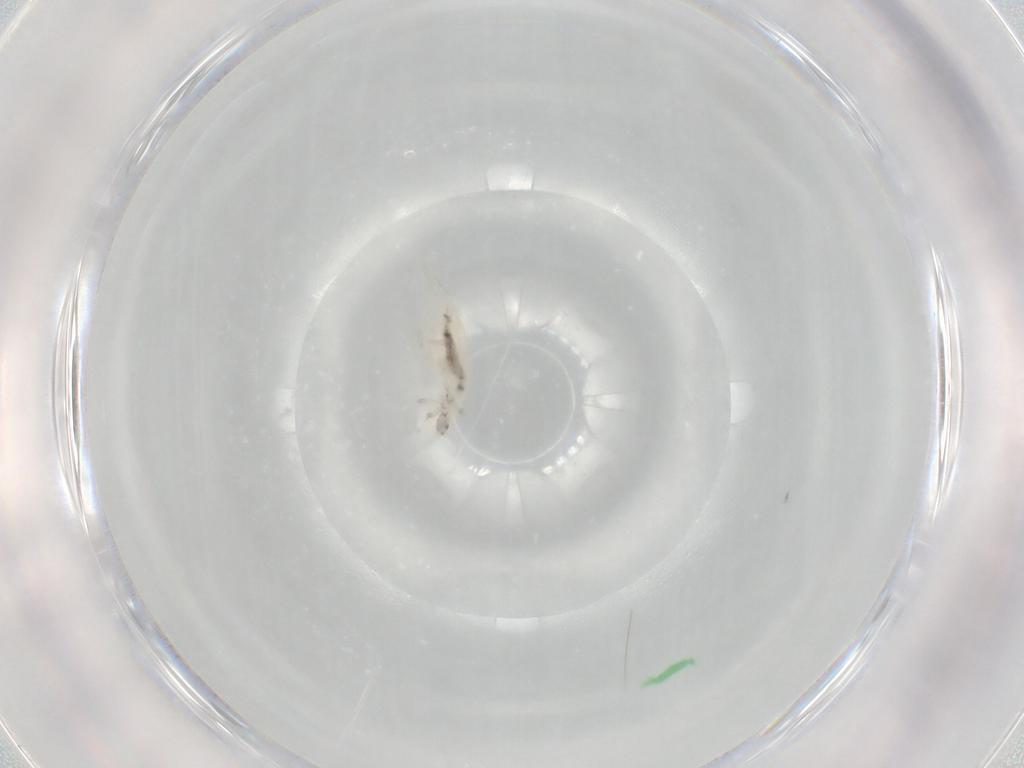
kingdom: Animalia
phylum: Arthropoda
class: Collembola
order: Entomobryomorpha
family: Entomobryidae
